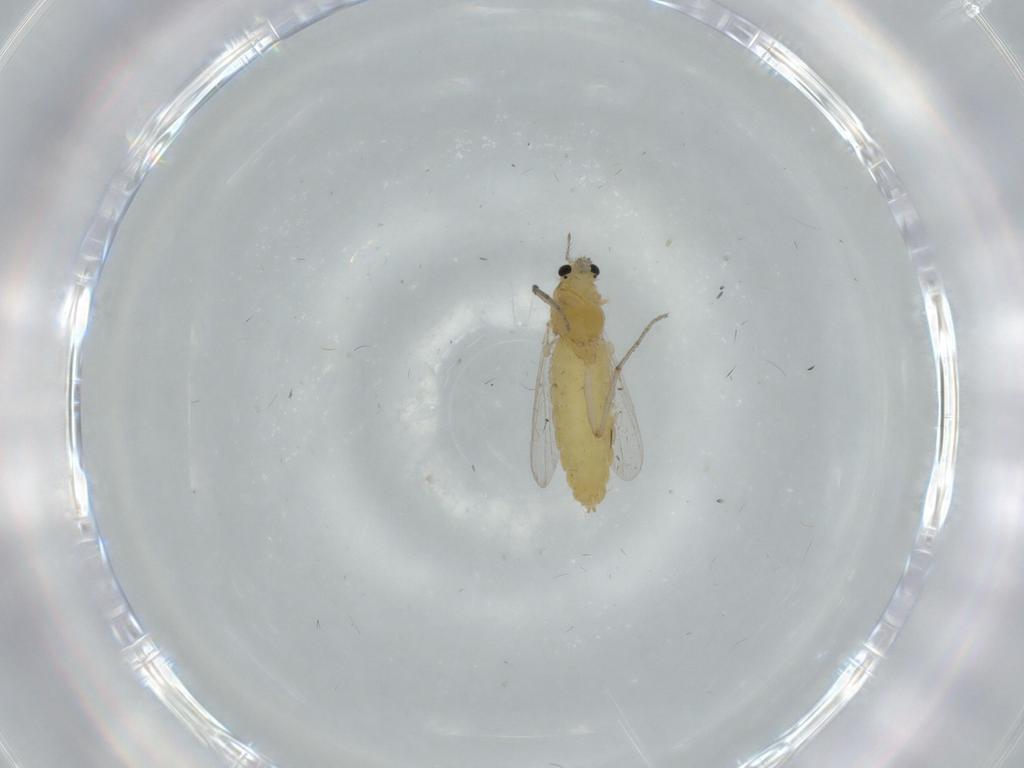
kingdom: Animalia
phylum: Arthropoda
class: Insecta
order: Diptera
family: Chironomidae
